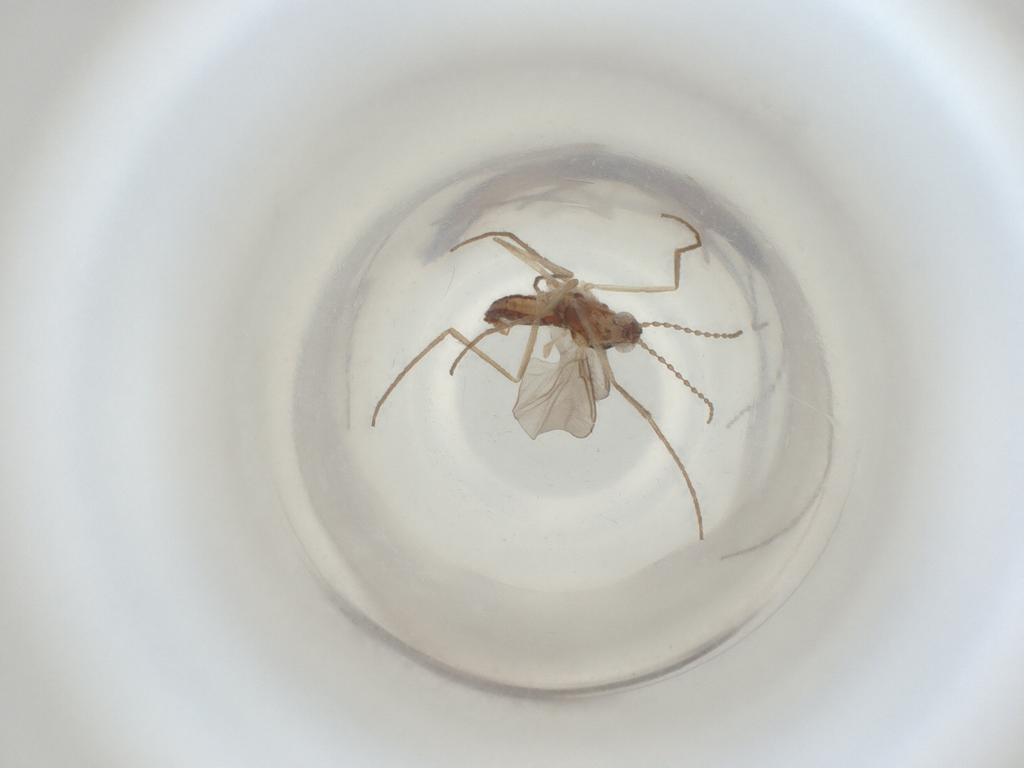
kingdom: Animalia
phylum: Arthropoda
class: Insecta
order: Diptera
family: Cecidomyiidae
